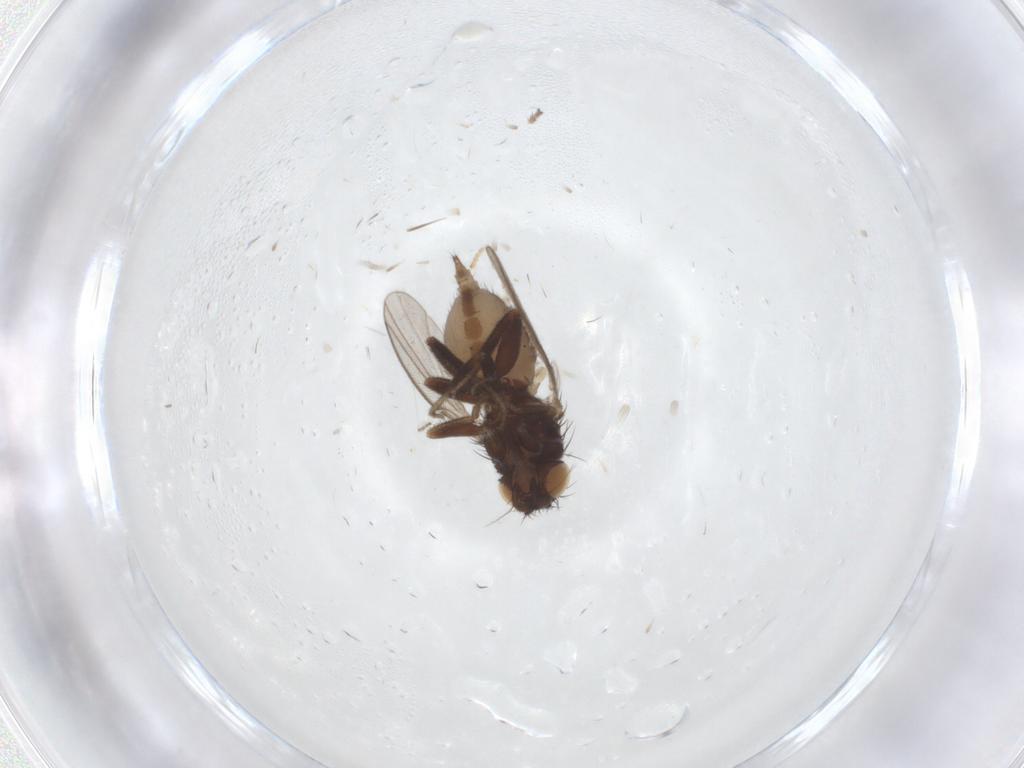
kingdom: Animalia
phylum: Arthropoda
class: Insecta
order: Diptera
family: Milichiidae
